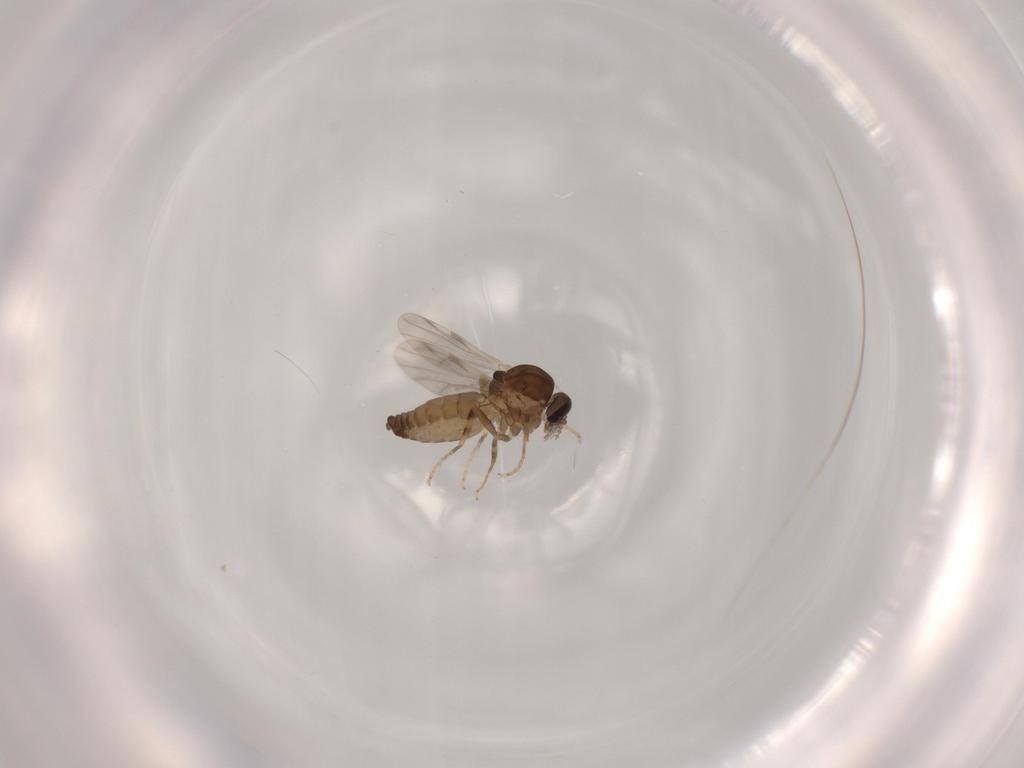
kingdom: Animalia
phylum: Arthropoda
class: Insecta
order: Diptera
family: Ceratopogonidae
